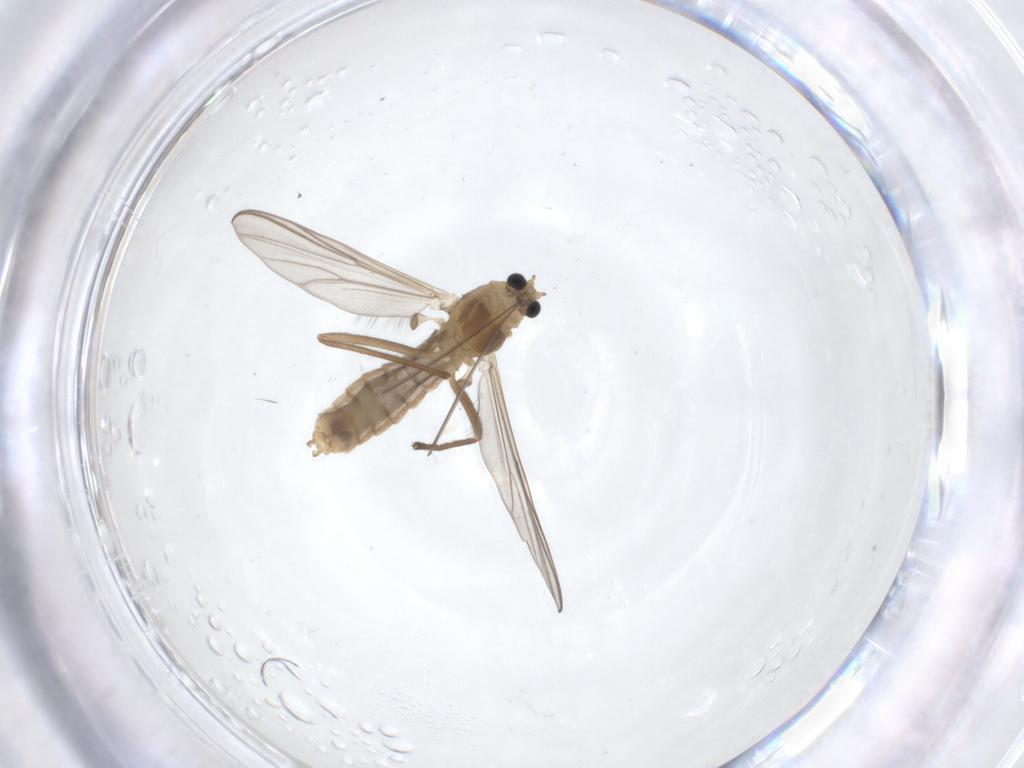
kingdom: Animalia
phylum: Arthropoda
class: Insecta
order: Diptera
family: Chironomidae
